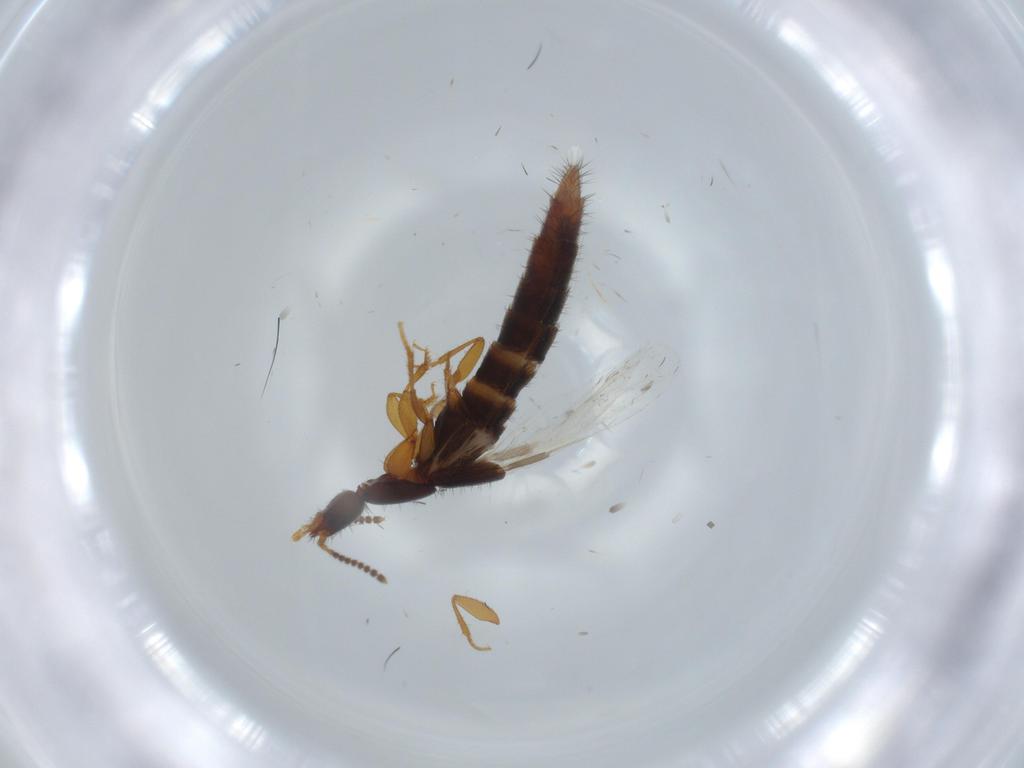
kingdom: Animalia
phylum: Arthropoda
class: Insecta
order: Coleoptera
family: Staphylinidae
